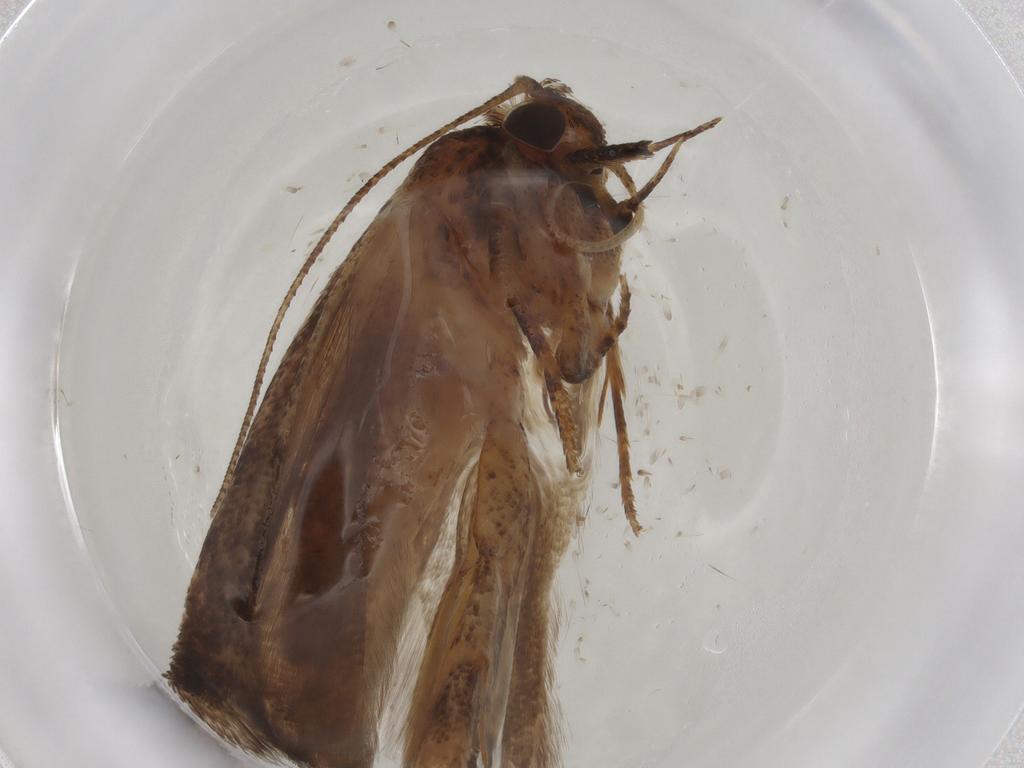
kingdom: Animalia
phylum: Arthropoda
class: Insecta
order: Lepidoptera
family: Gelechiidae
